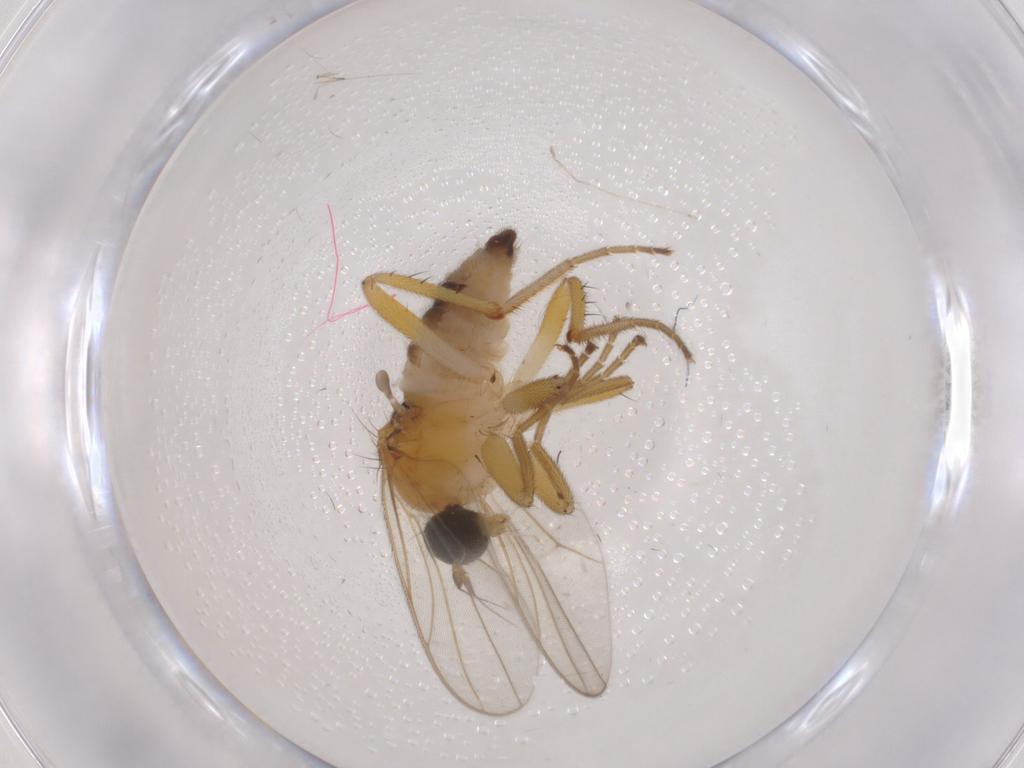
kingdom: Animalia
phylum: Arthropoda
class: Insecta
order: Diptera
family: Hybotidae
